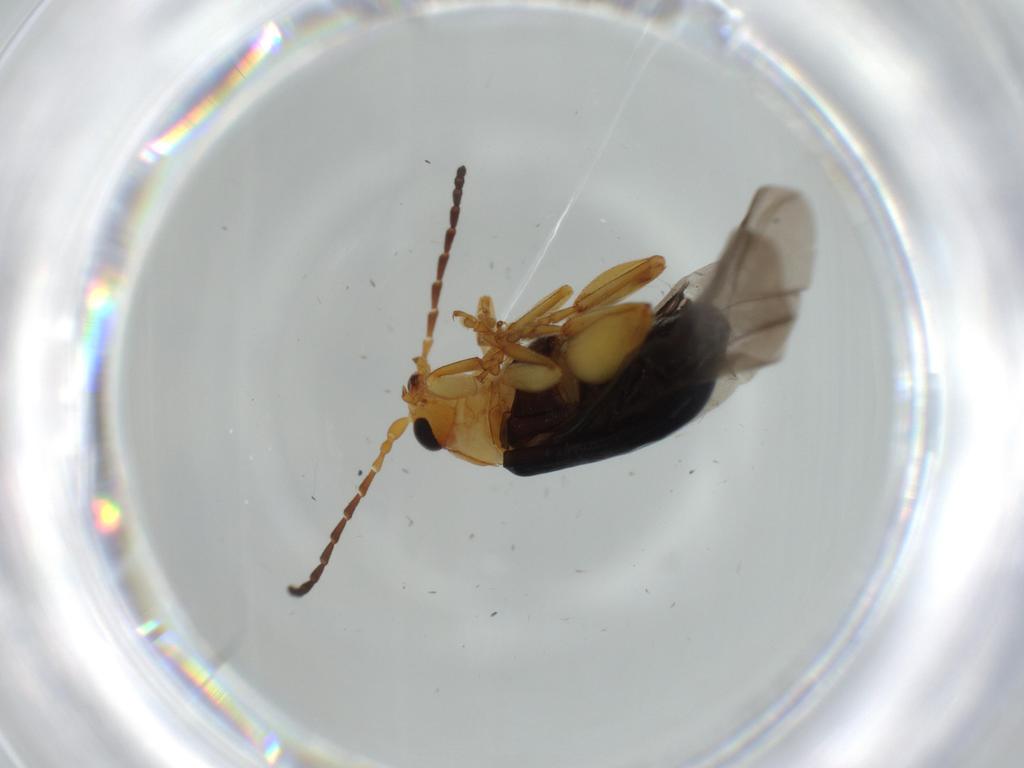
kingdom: Animalia
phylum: Arthropoda
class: Insecta
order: Coleoptera
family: Chrysomelidae
